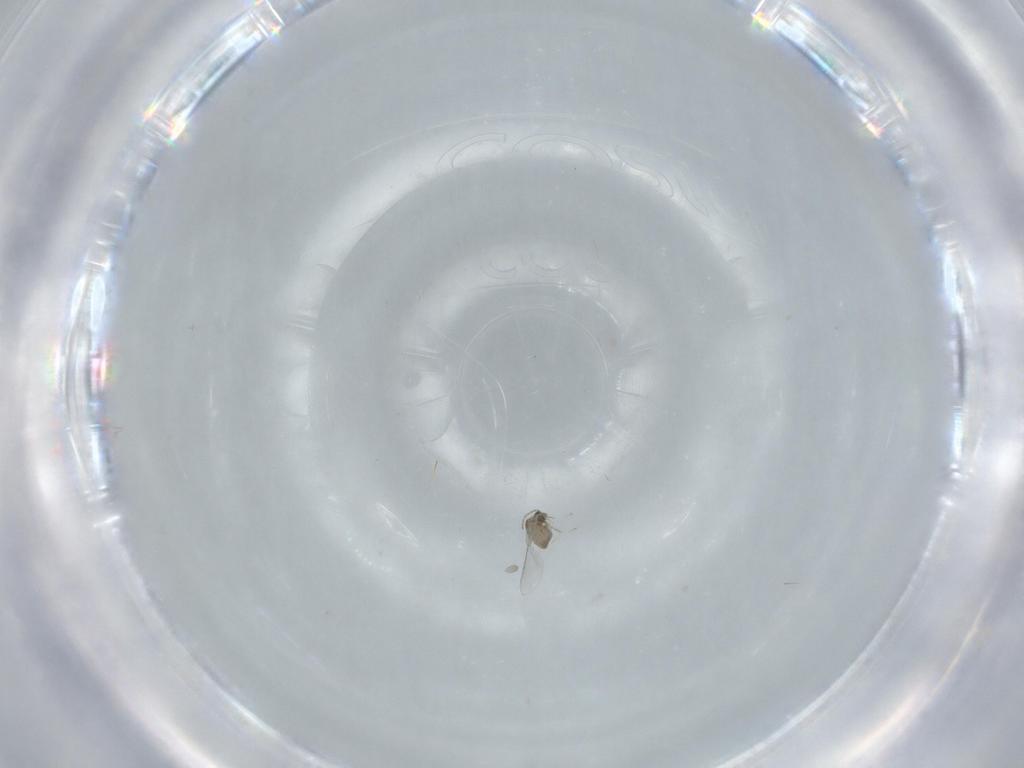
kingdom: Animalia
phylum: Arthropoda
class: Insecta
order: Diptera
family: Cecidomyiidae
